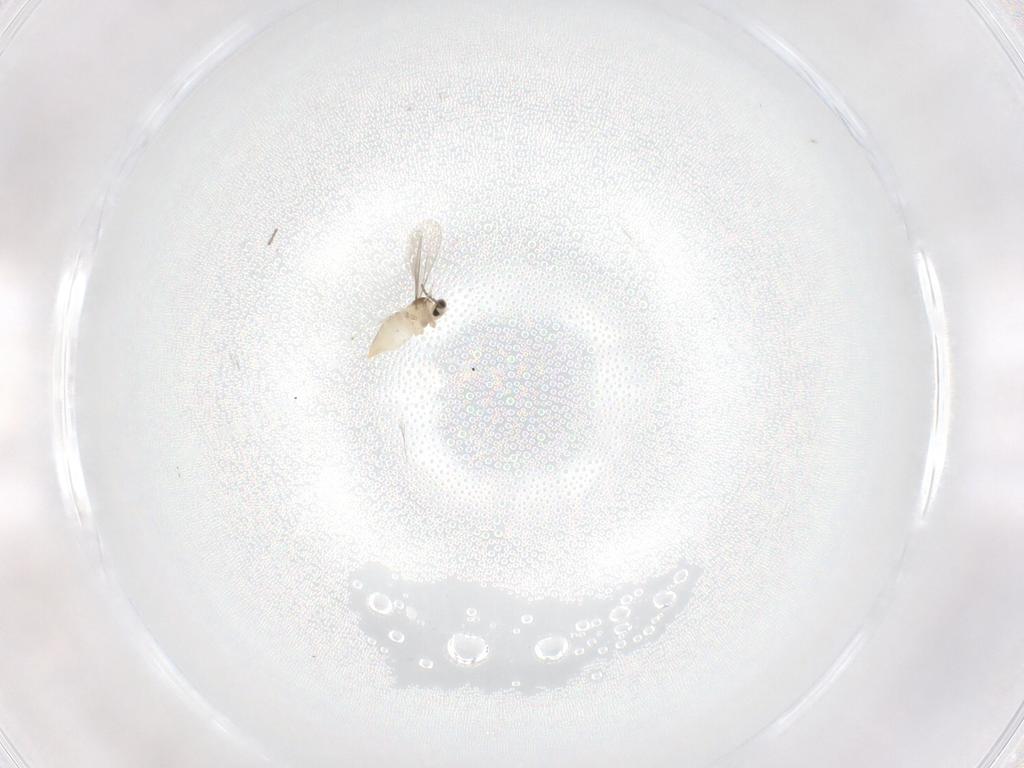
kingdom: Animalia
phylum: Arthropoda
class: Insecta
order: Diptera
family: Cecidomyiidae
